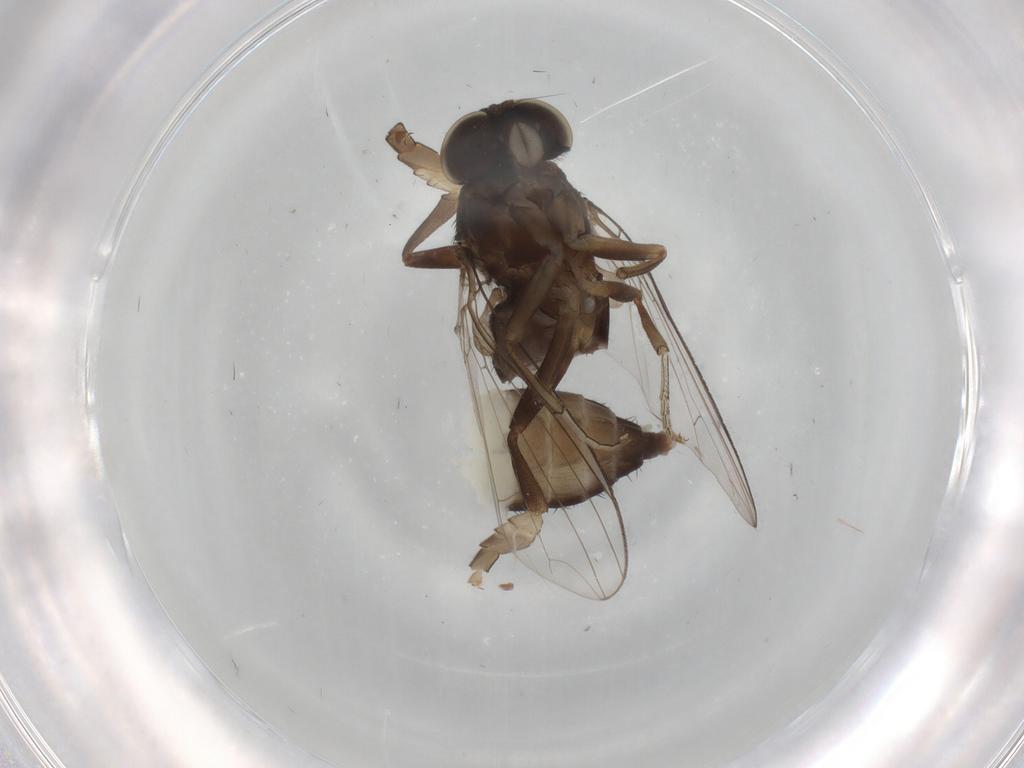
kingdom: Animalia
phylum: Arthropoda
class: Insecta
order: Diptera
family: Platypezidae
